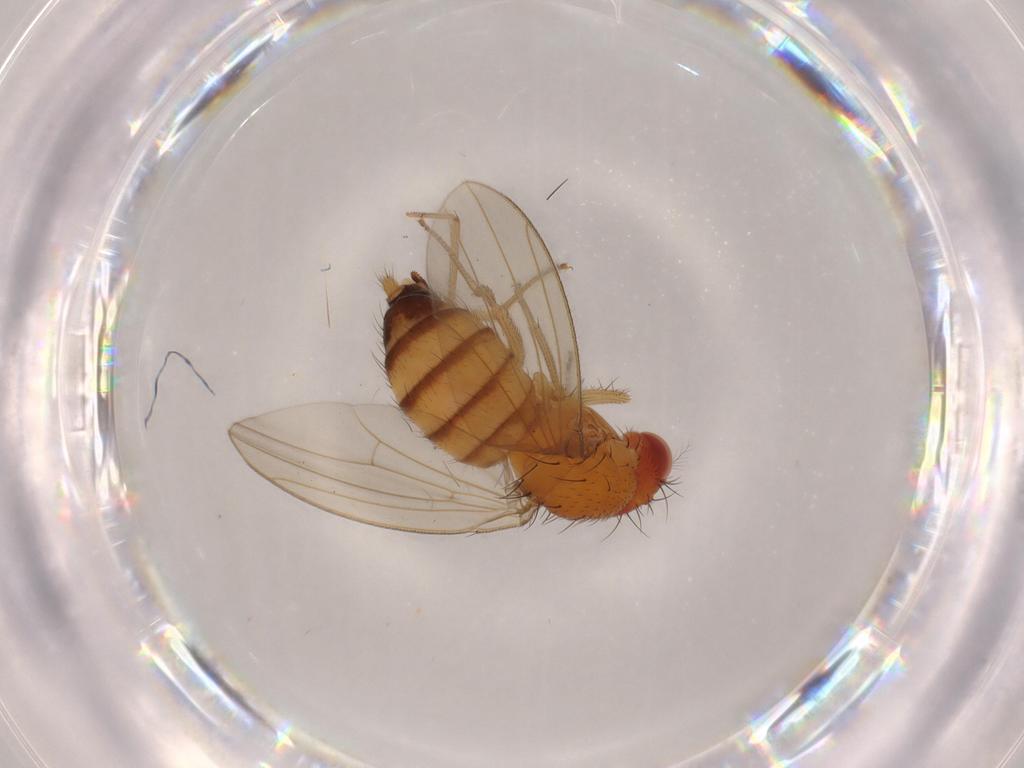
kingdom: Animalia
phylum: Arthropoda
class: Insecta
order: Diptera
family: Drosophilidae
